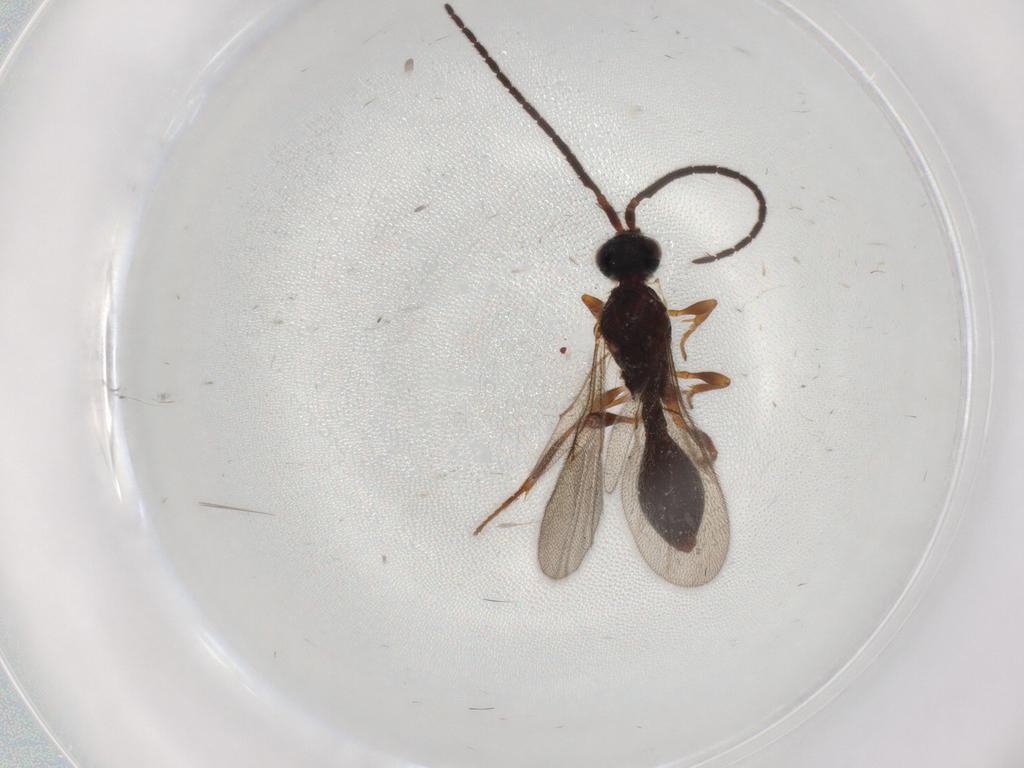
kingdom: Animalia
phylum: Arthropoda
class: Insecta
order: Hymenoptera
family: Diapriidae
